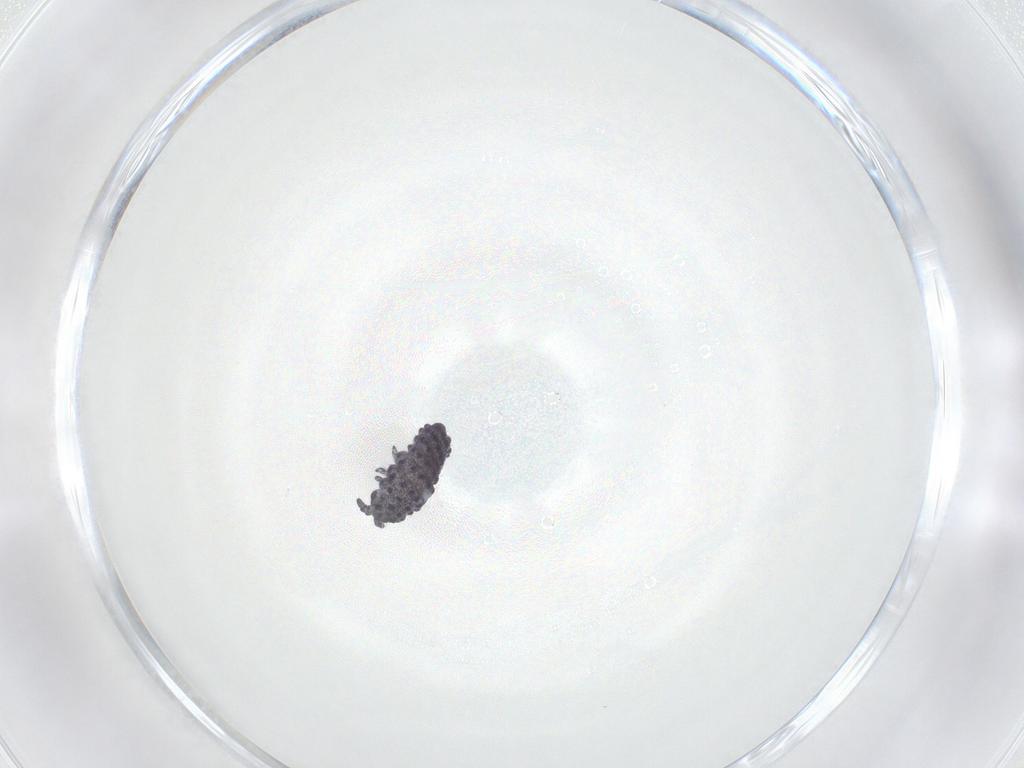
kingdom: Animalia
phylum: Arthropoda
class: Collembola
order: Poduromorpha
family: Neanuridae
